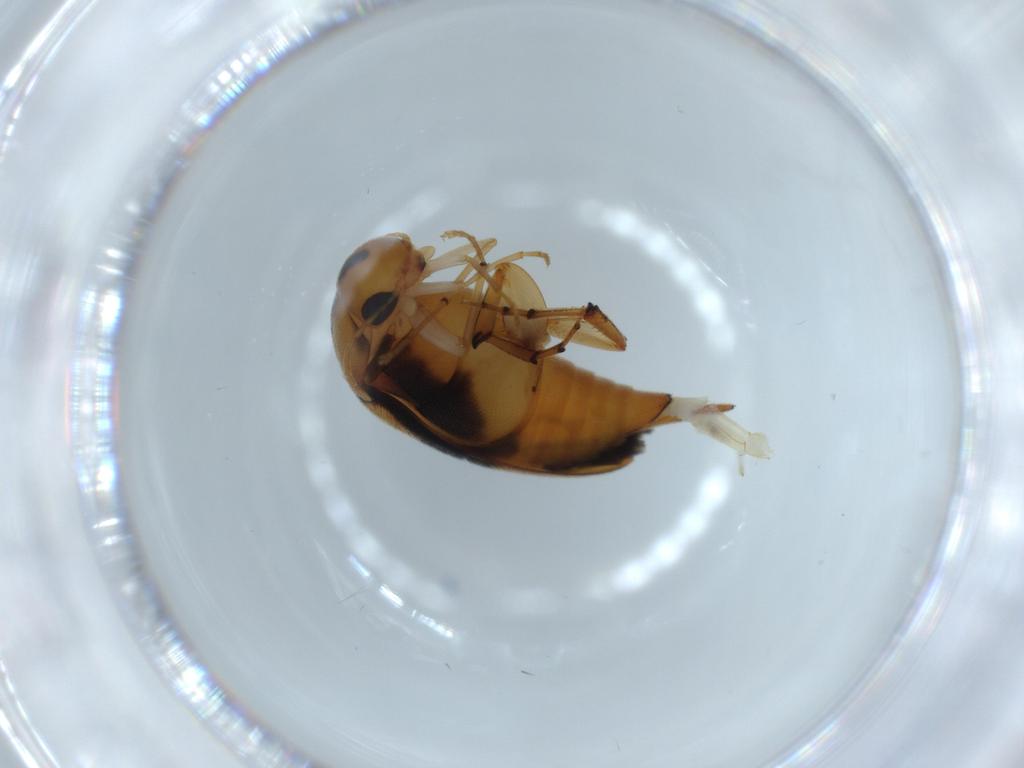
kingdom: Animalia
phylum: Arthropoda
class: Insecta
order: Coleoptera
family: Mordellidae
